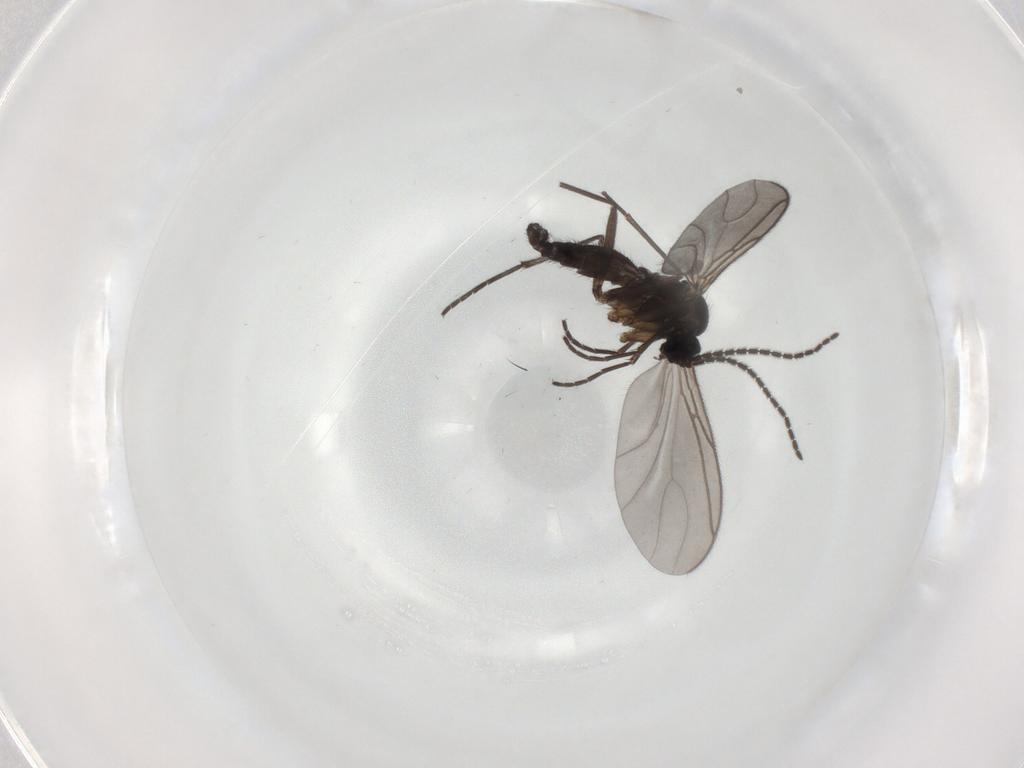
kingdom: Animalia
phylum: Arthropoda
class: Insecta
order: Diptera
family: Sciaridae
